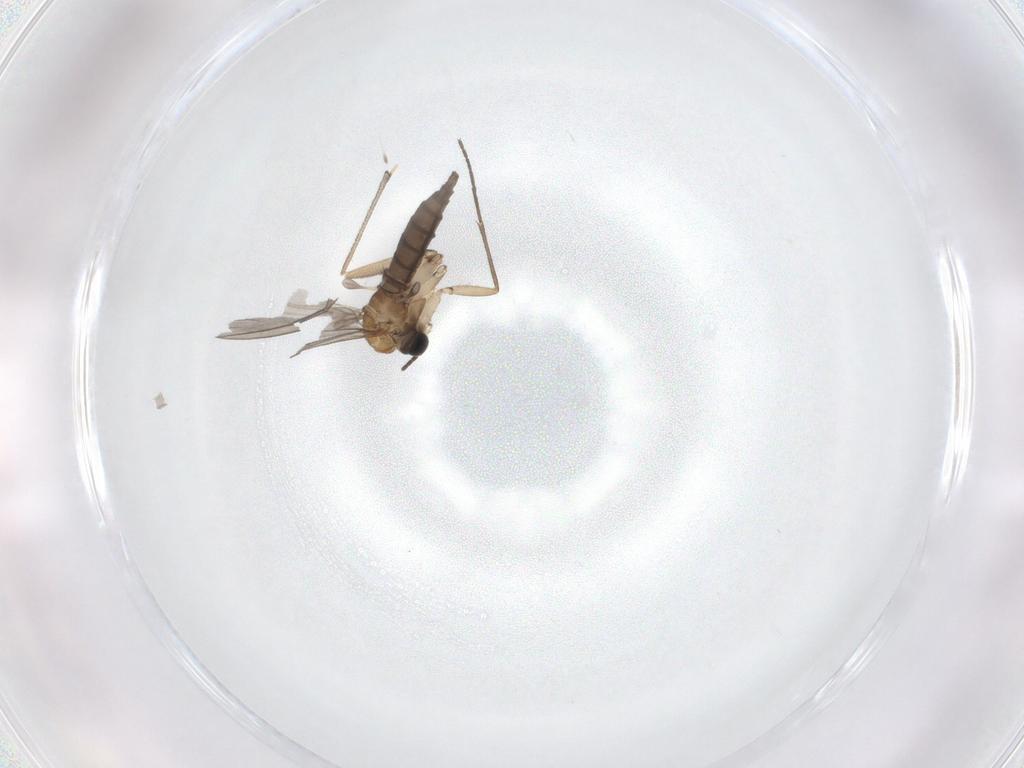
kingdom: Animalia
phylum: Arthropoda
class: Insecta
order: Diptera
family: Sciaridae
